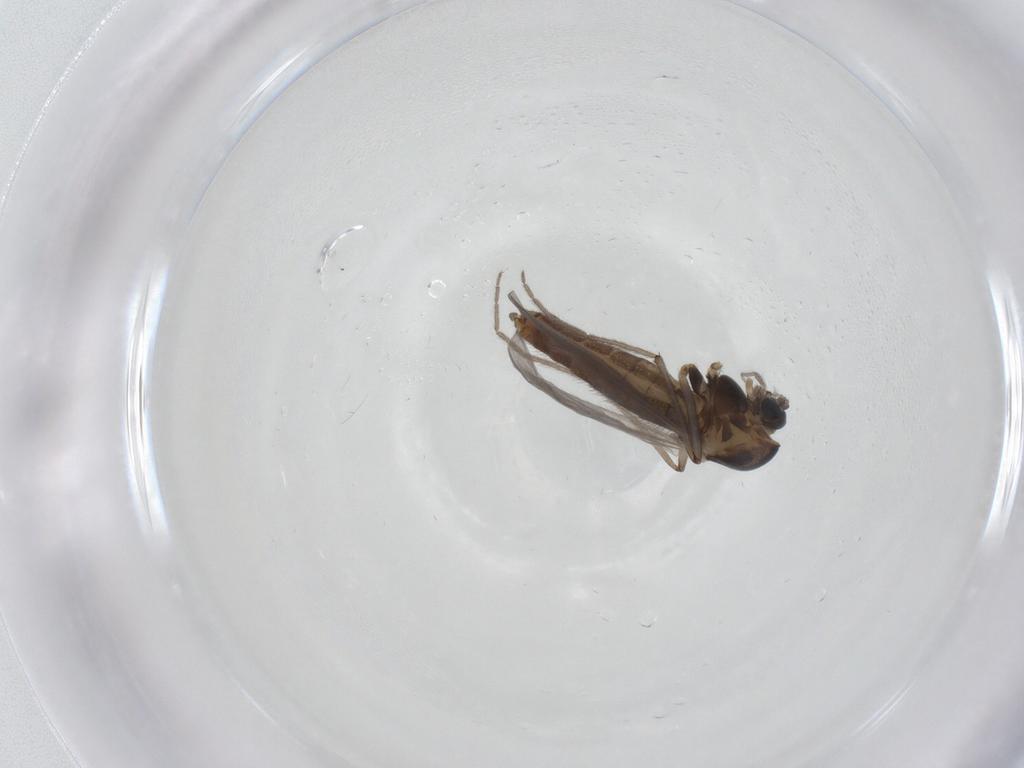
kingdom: Animalia
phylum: Arthropoda
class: Insecta
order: Diptera
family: Chironomidae
